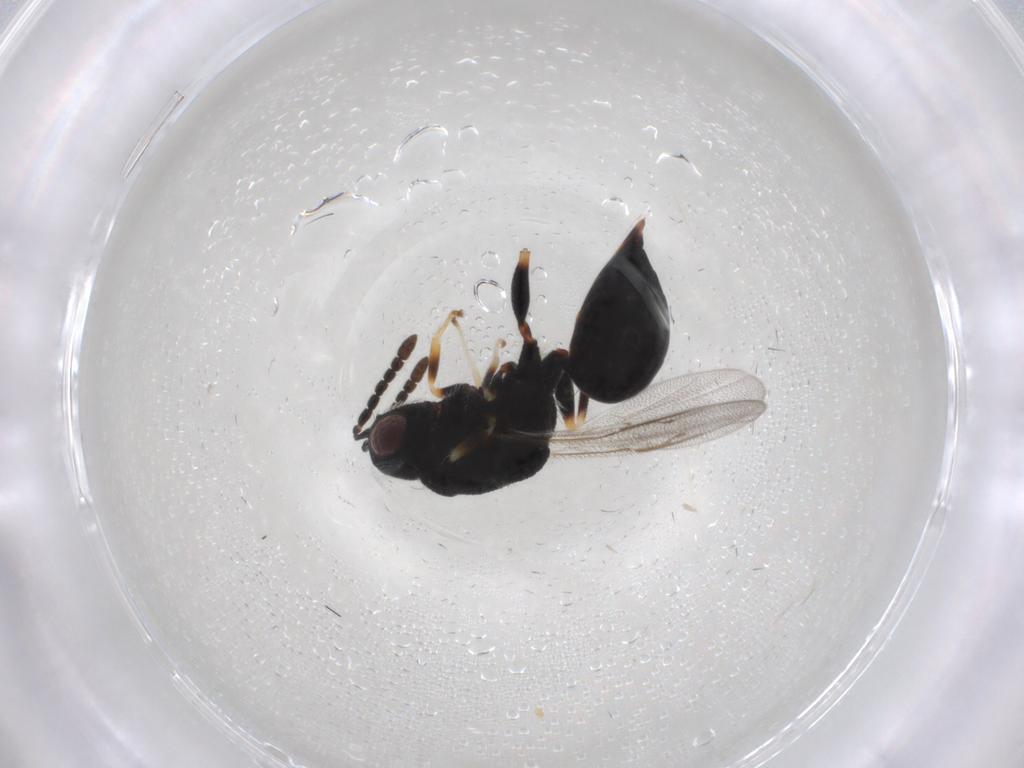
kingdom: Animalia
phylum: Arthropoda
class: Insecta
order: Hymenoptera
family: Eurytomidae
